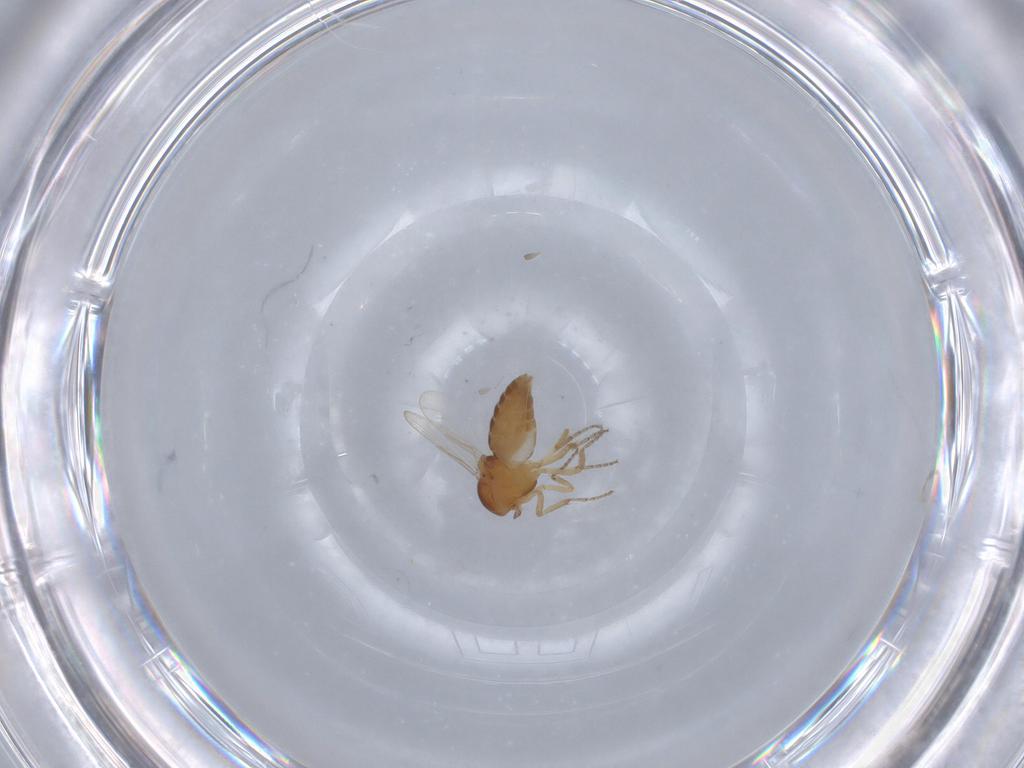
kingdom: Animalia
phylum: Arthropoda
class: Insecta
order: Diptera
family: Ceratopogonidae
